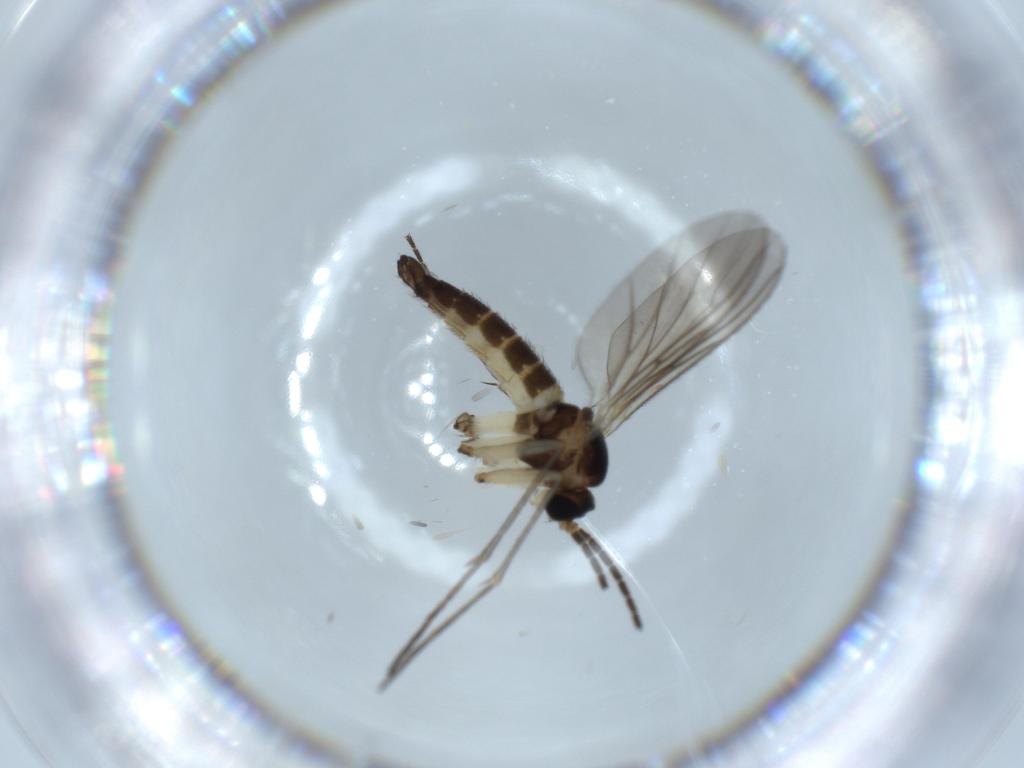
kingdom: Animalia
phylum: Arthropoda
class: Insecta
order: Diptera
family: Sciaridae
